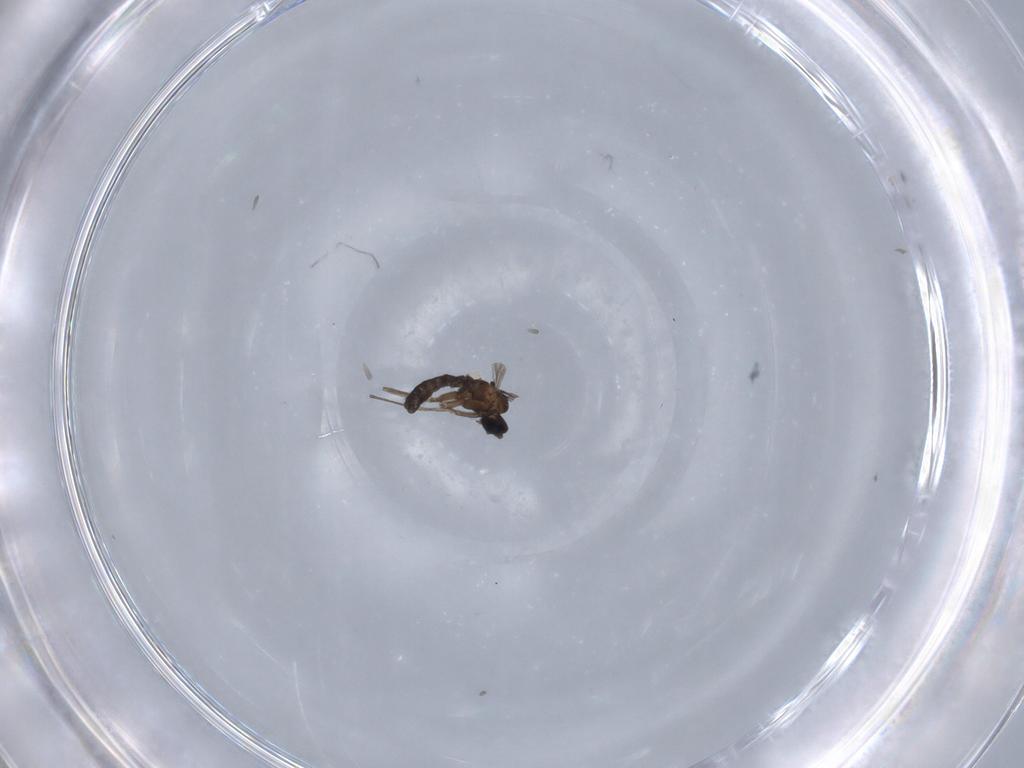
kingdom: Animalia
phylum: Arthropoda
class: Insecta
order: Diptera
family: Sciaridae
